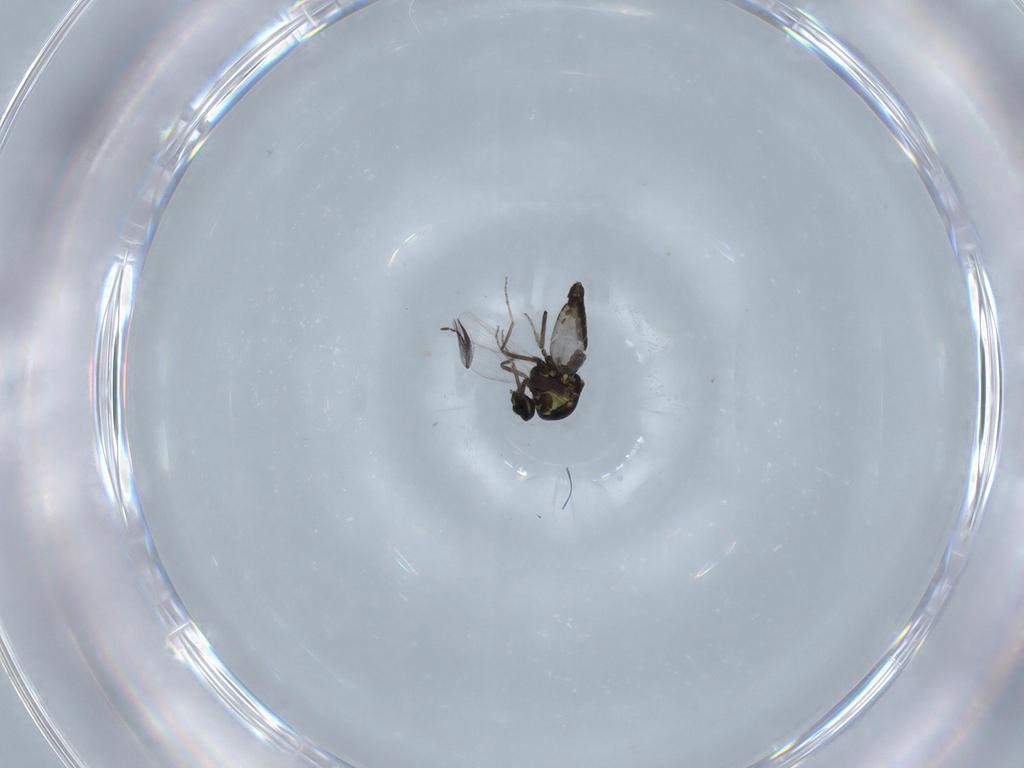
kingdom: Animalia
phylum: Arthropoda
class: Insecta
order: Diptera
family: Ceratopogonidae
